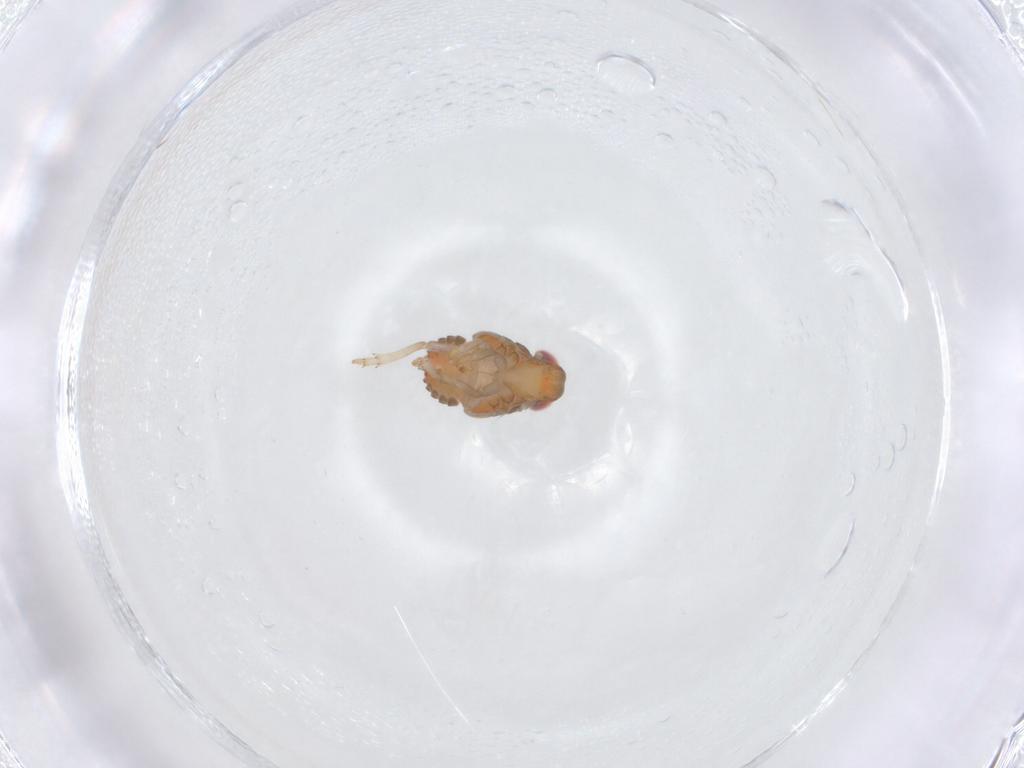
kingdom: Animalia
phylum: Arthropoda
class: Insecta
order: Hemiptera
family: Issidae
